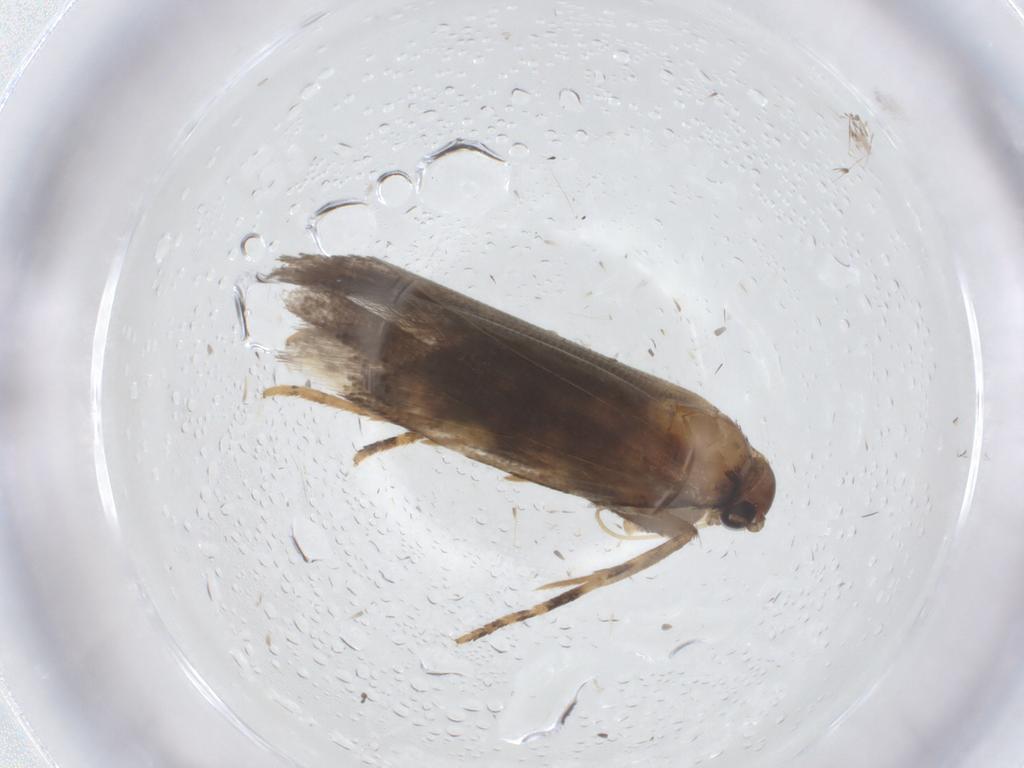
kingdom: Animalia
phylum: Arthropoda
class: Insecta
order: Lepidoptera
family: Gelechiidae
